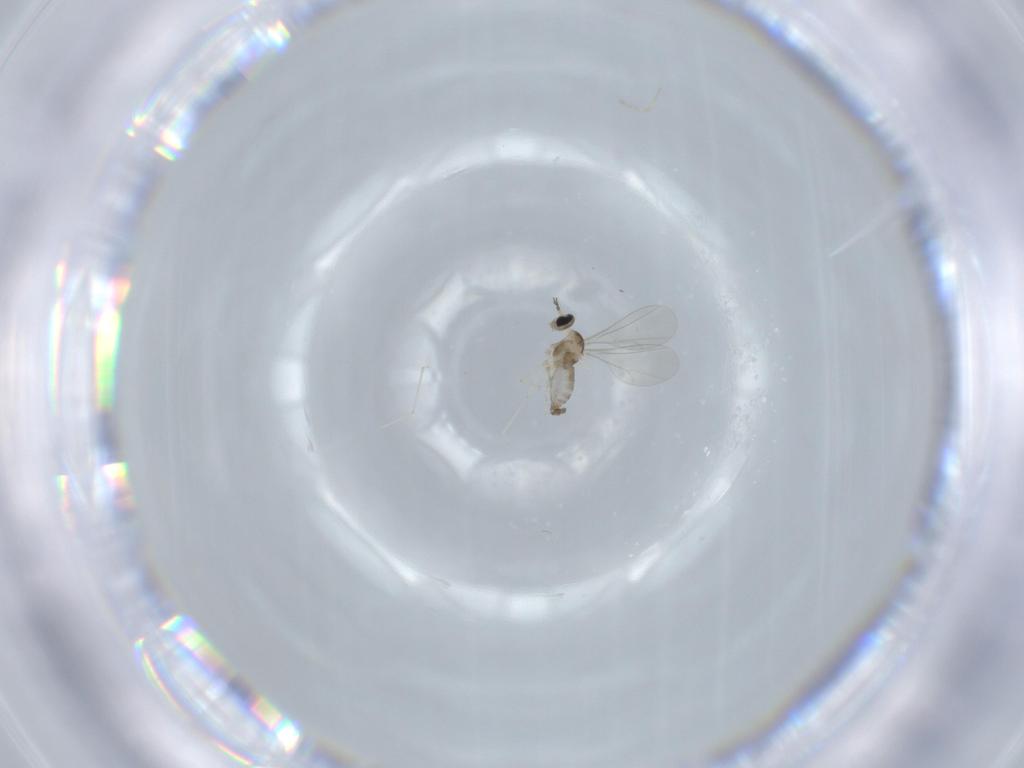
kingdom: Animalia
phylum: Arthropoda
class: Insecta
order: Diptera
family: Cecidomyiidae
